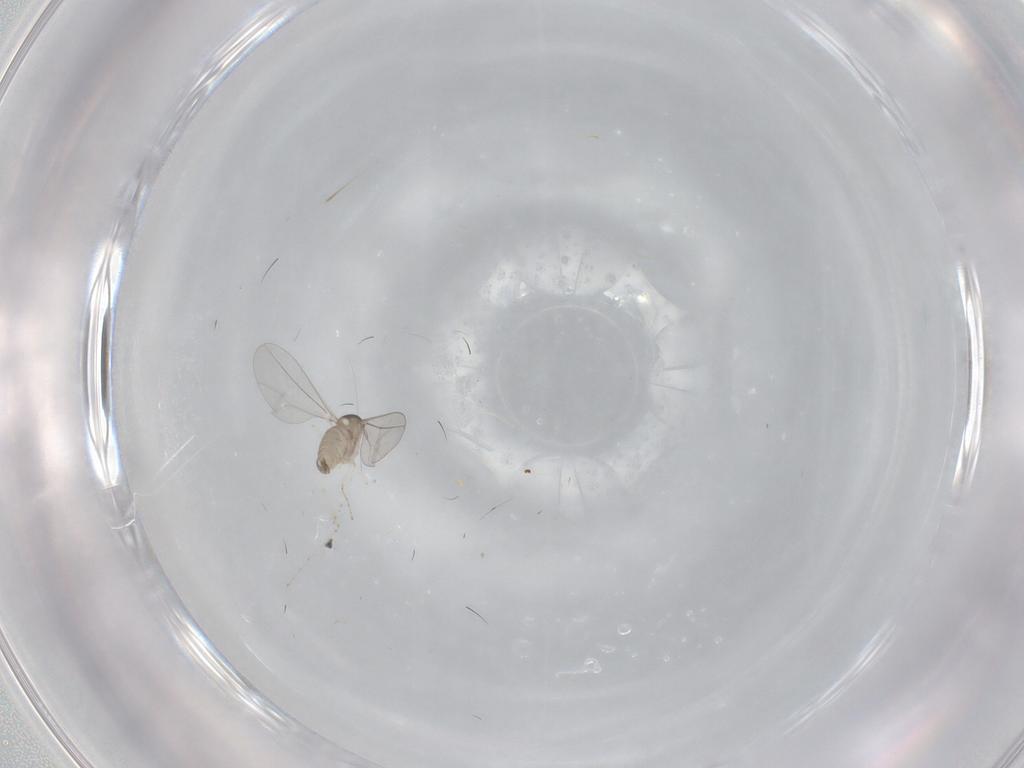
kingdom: Animalia
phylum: Arthropoda
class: Insecta
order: Diptera
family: Cecidomyiidae
